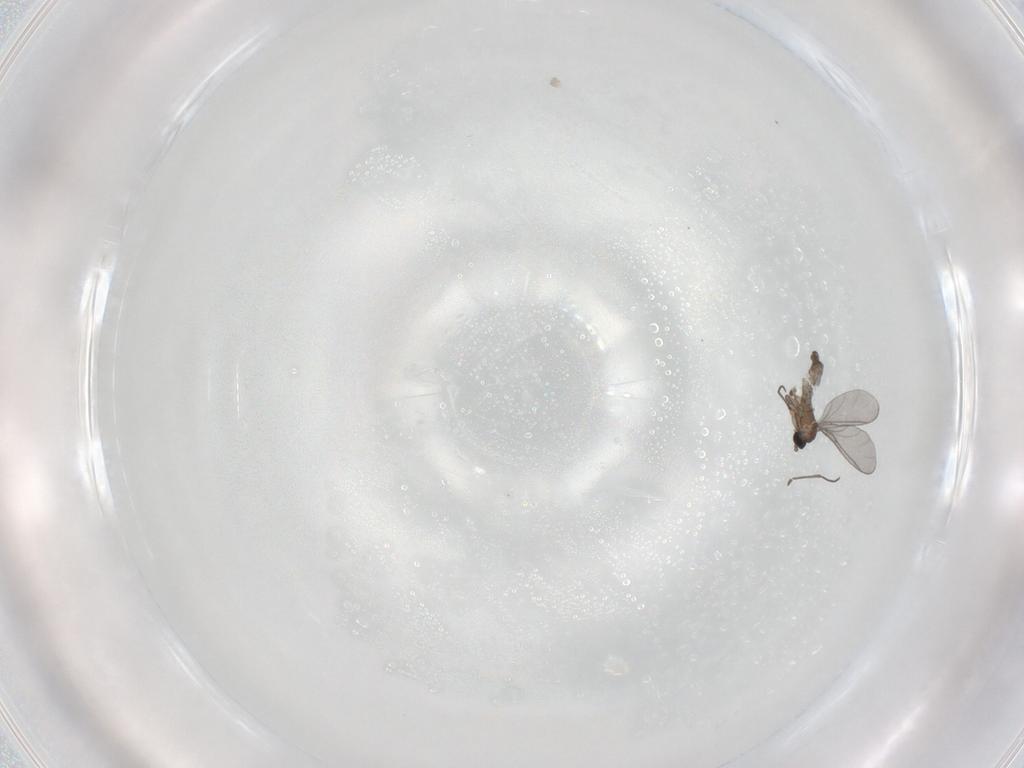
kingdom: Animalia
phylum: Arthropoda
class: Insecta
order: Diptera
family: Sciaridae
